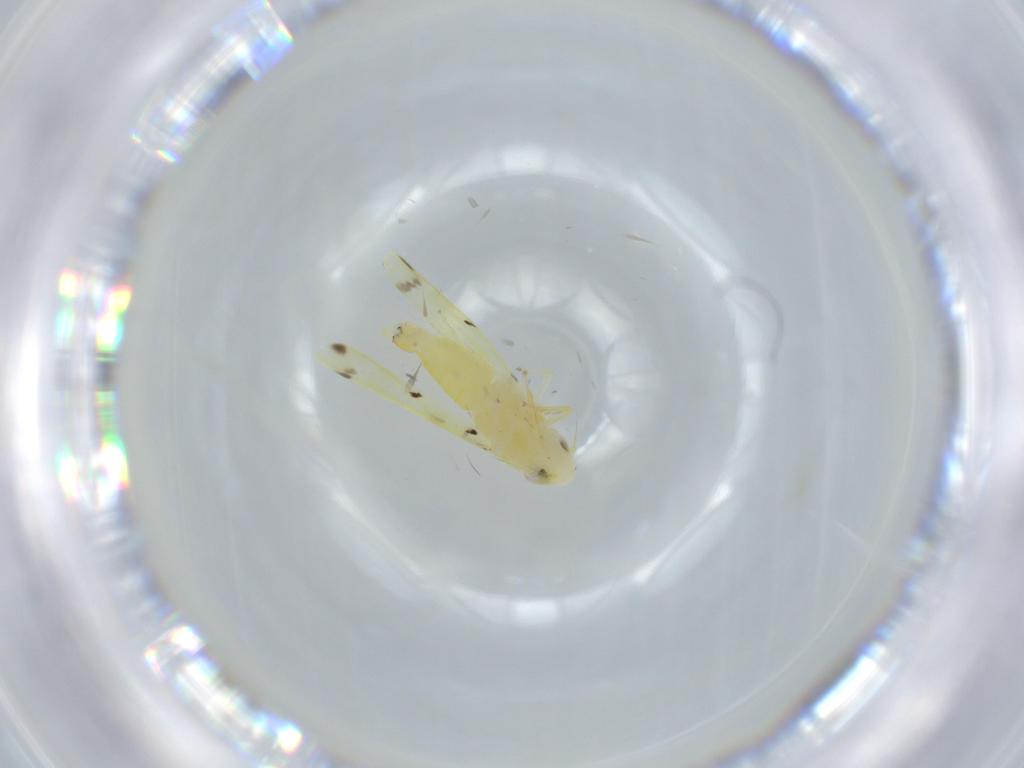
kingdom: Animalia
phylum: Arthropoda
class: Insecta
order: Hemiptera
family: Cicadellidae
